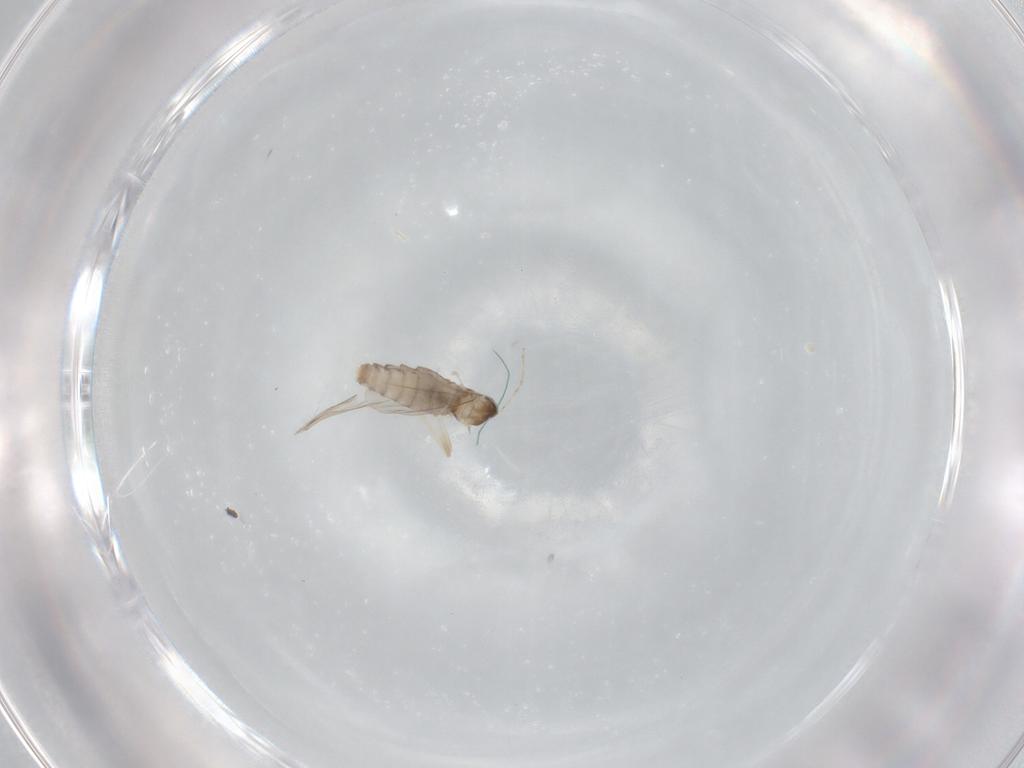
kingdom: Animalia
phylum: Arthropoda
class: Insecta
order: Diptera
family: Cecidomyiidae
